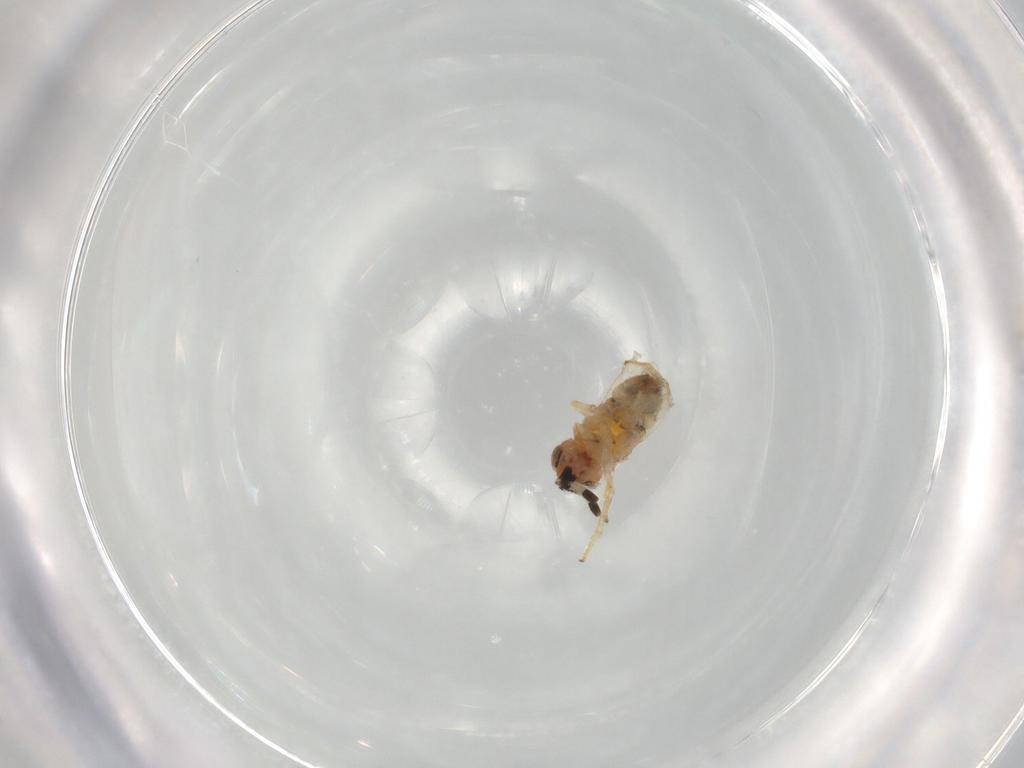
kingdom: Animalia
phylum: Arthropoda
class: Insecta
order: Hymenoptera
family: Encyrtidae
